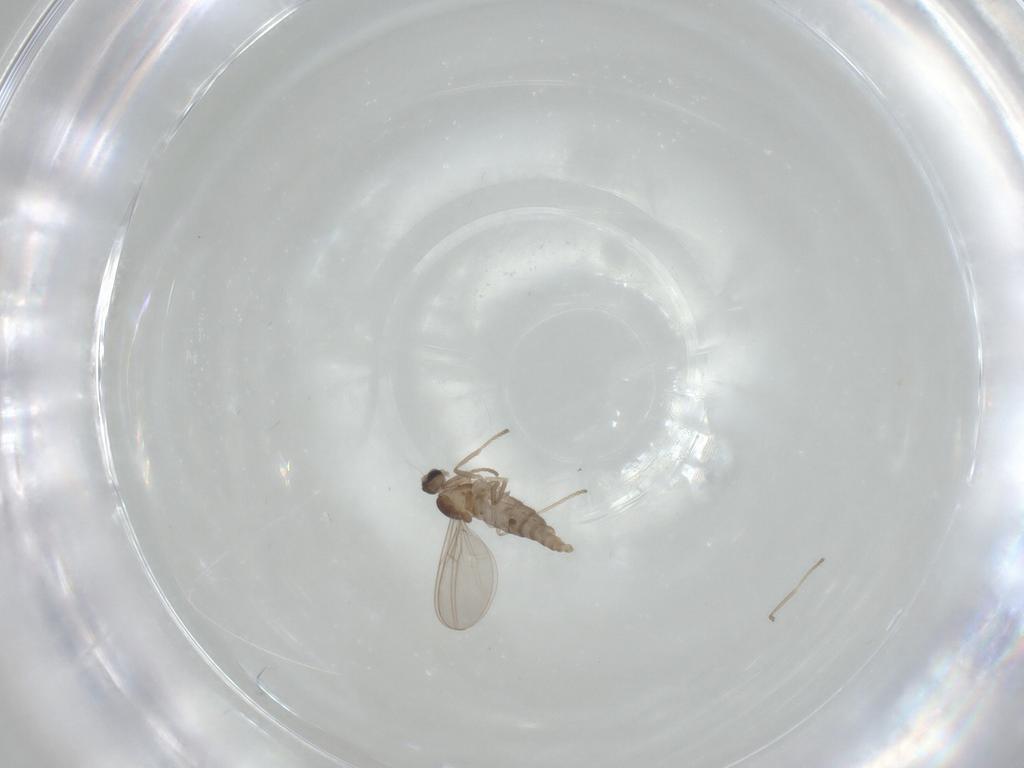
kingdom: Animalia
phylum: Arthropoda
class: Insecta
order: Diptera
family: Cecidomyiidae
